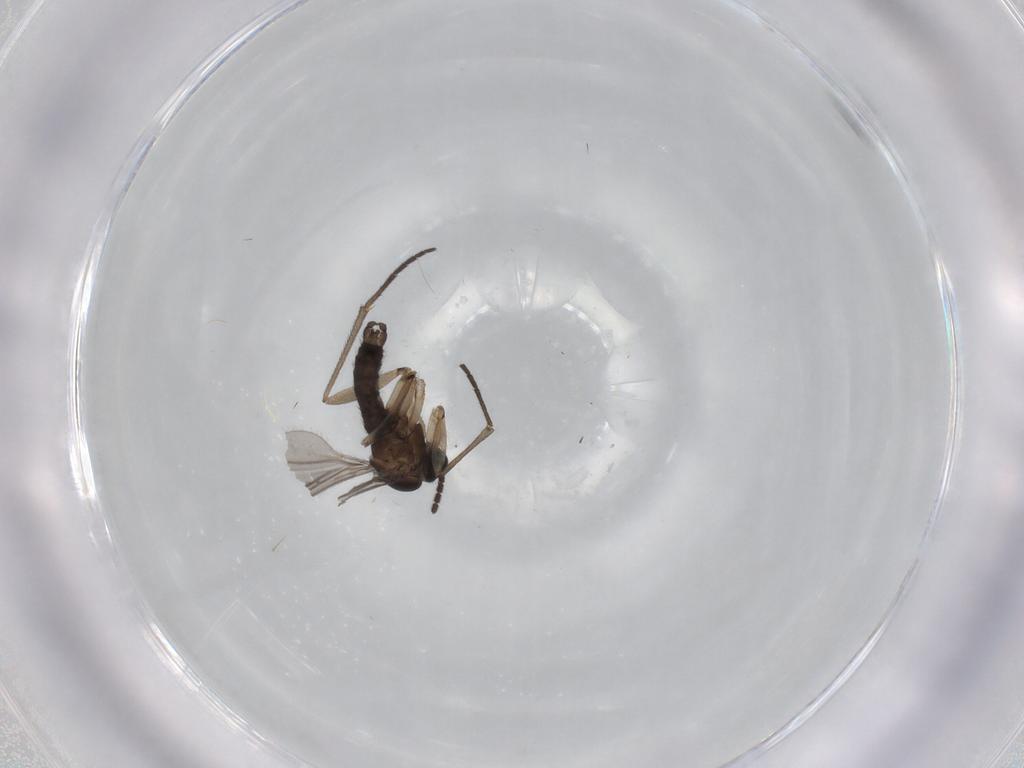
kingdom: Animalia
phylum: Arthropoda
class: Insecta
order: Diptera
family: Sciaridae
